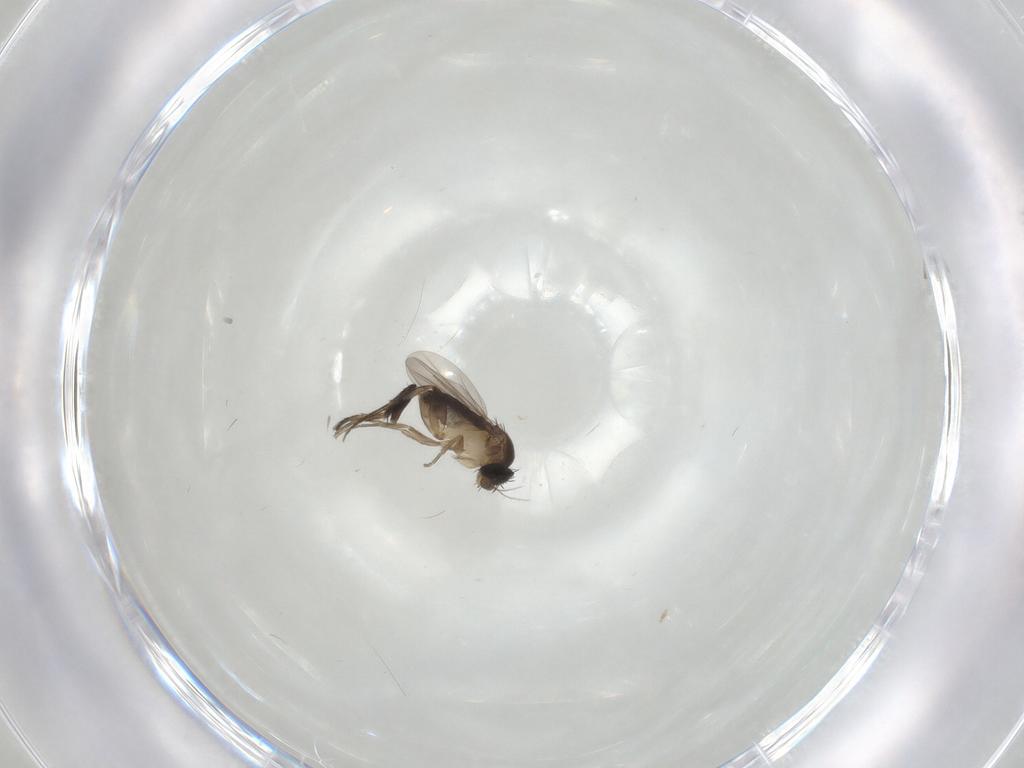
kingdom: Animalia
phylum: Arthropoda
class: Insecta
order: Diptera
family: Phoridae
